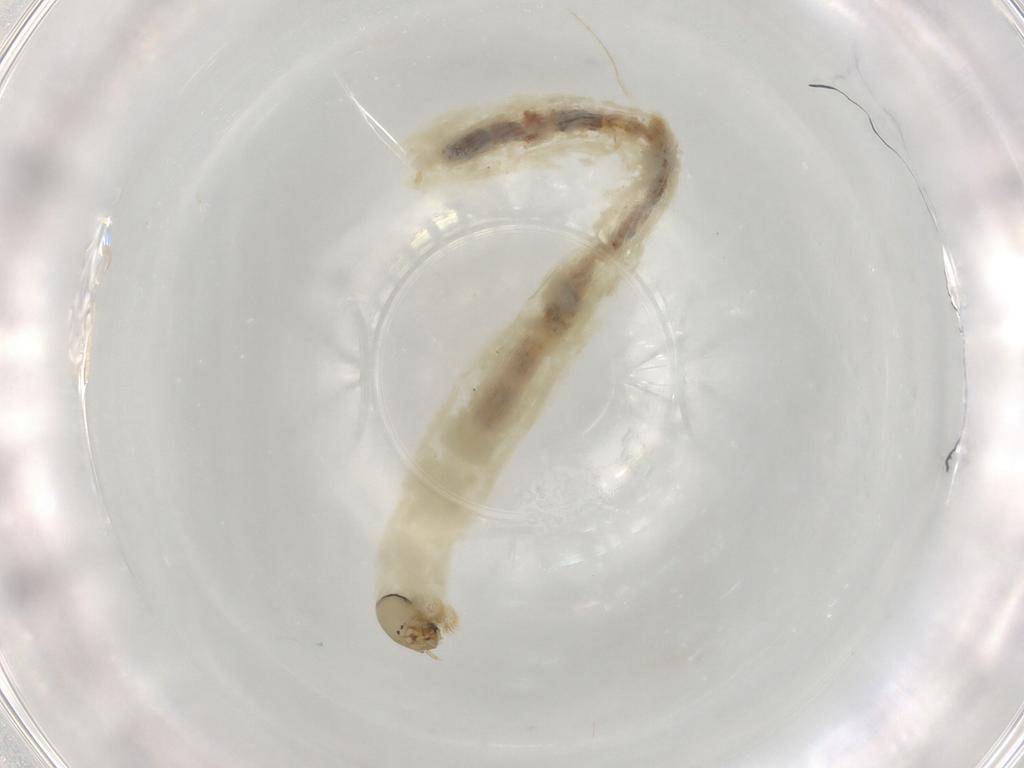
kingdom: Animalia
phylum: Arthropoda
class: Insecta
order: Diptera
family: Chironomidae
